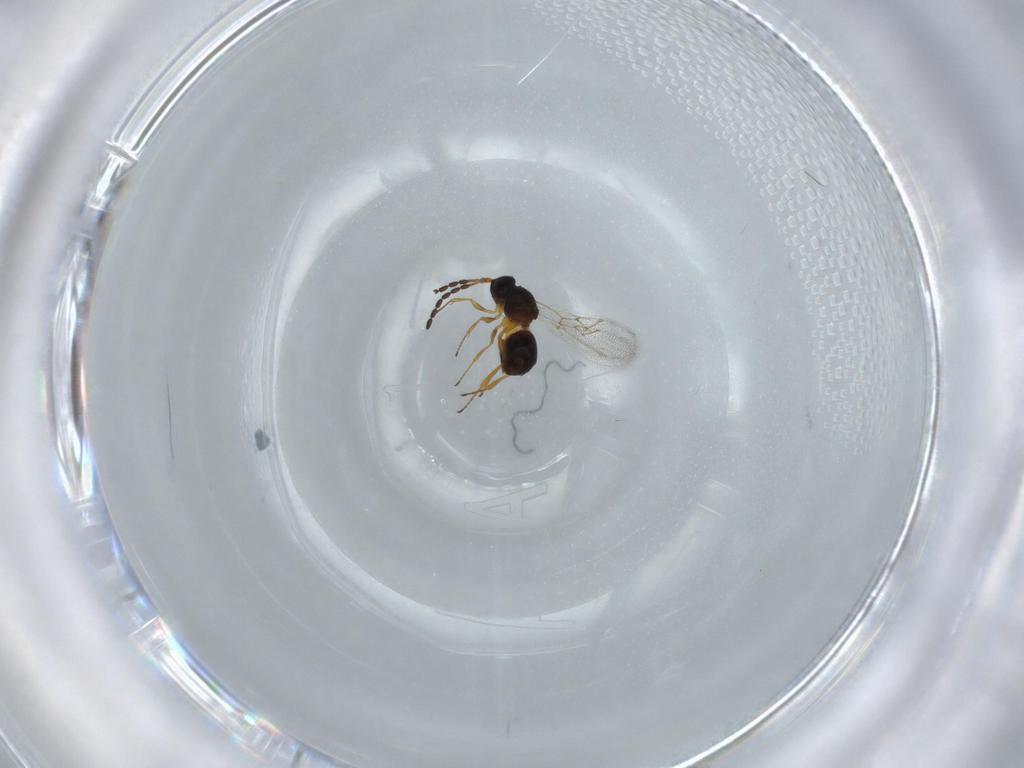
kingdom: Animalia
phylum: Arthropoda
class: Insecta
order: Hymenoptera
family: Figitidae
